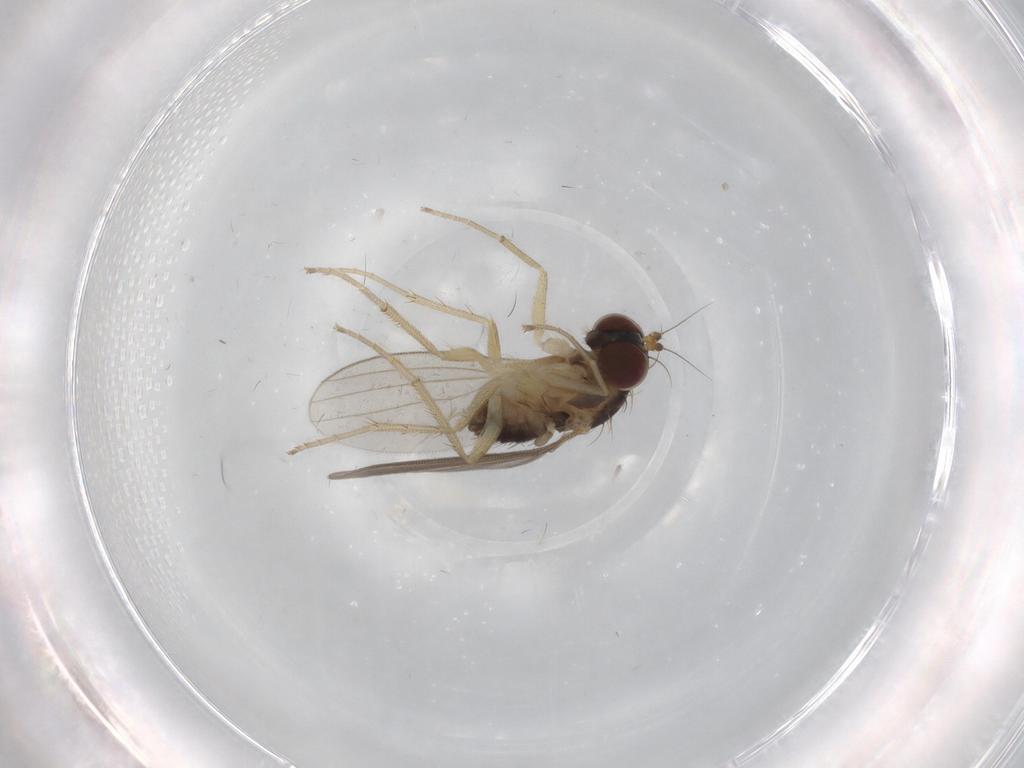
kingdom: Animalia
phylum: Arthropoda
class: Insecta
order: Diptera
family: Dolichopodidae
